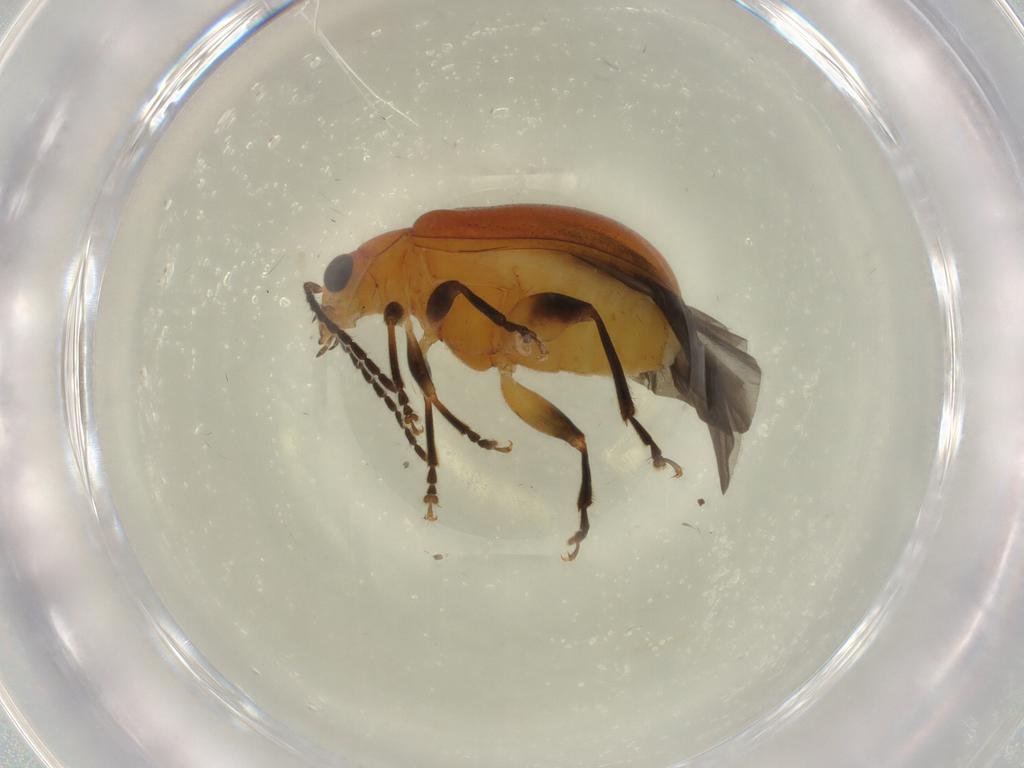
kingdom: Animalia
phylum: Arthropoda
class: Insecta
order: Coleoptera
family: Chrysomelidae
